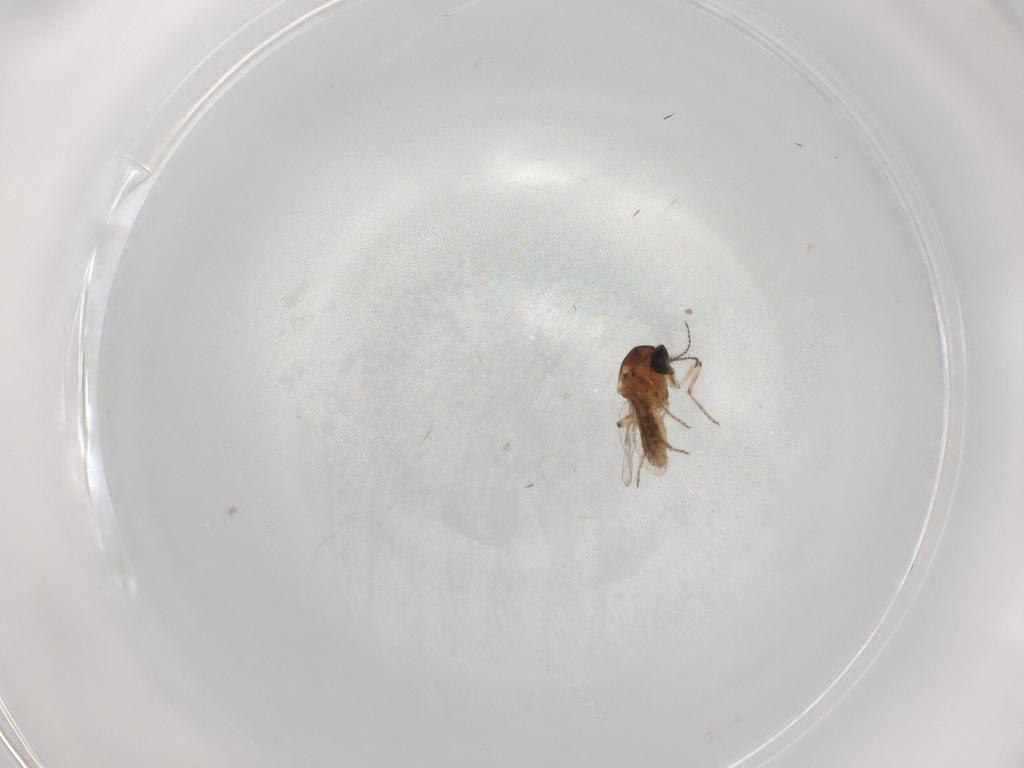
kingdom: Animalia
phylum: Arthropoda
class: Insecta
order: Diptera
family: Ceratopogonidae
